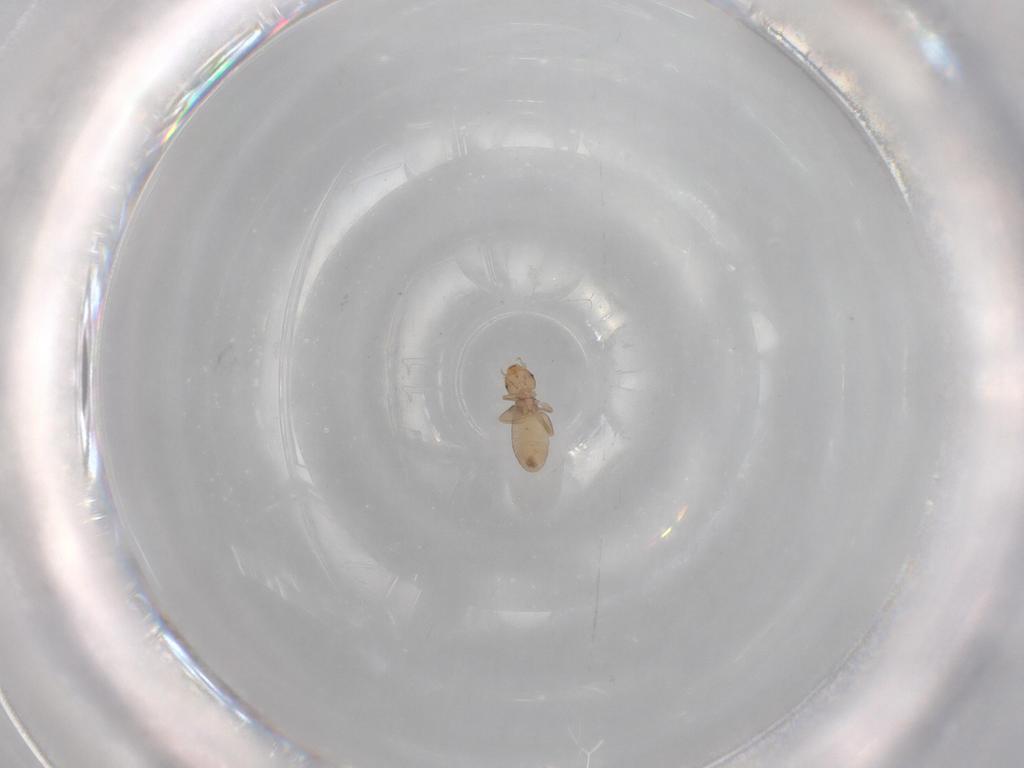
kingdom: Animalia
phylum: Arthropoda
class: Insecta
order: Psocodea
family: Liposcelididae
